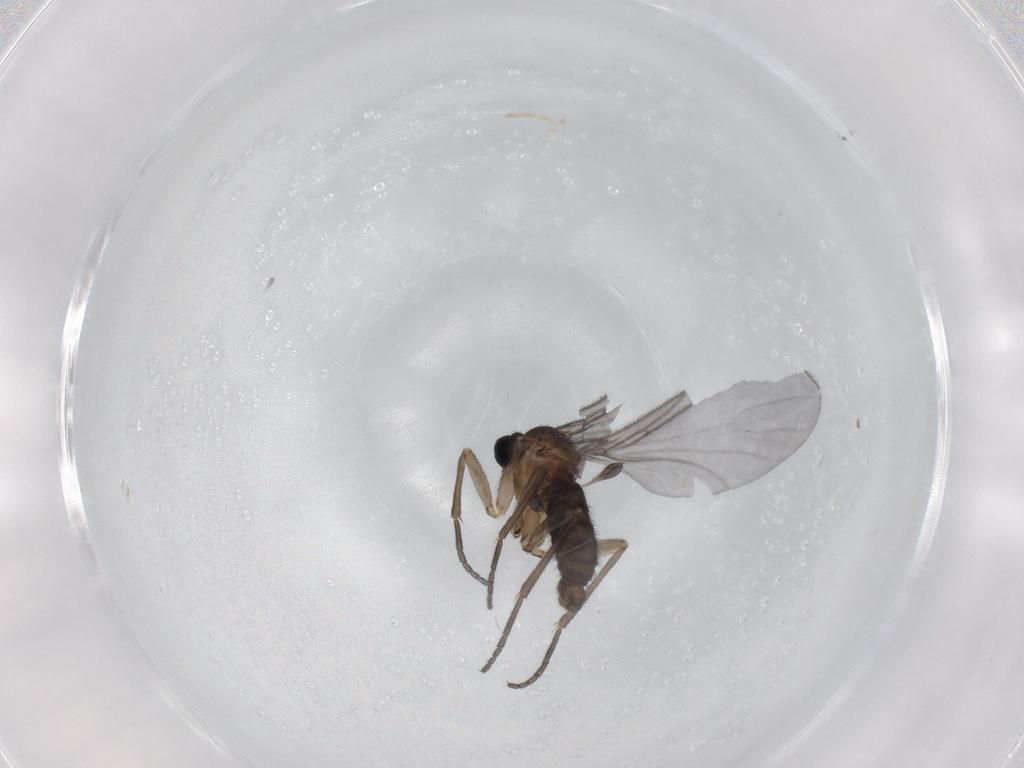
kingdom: Animalia
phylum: Arthropoda
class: Insecta
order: Diptera
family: Sciaridae
